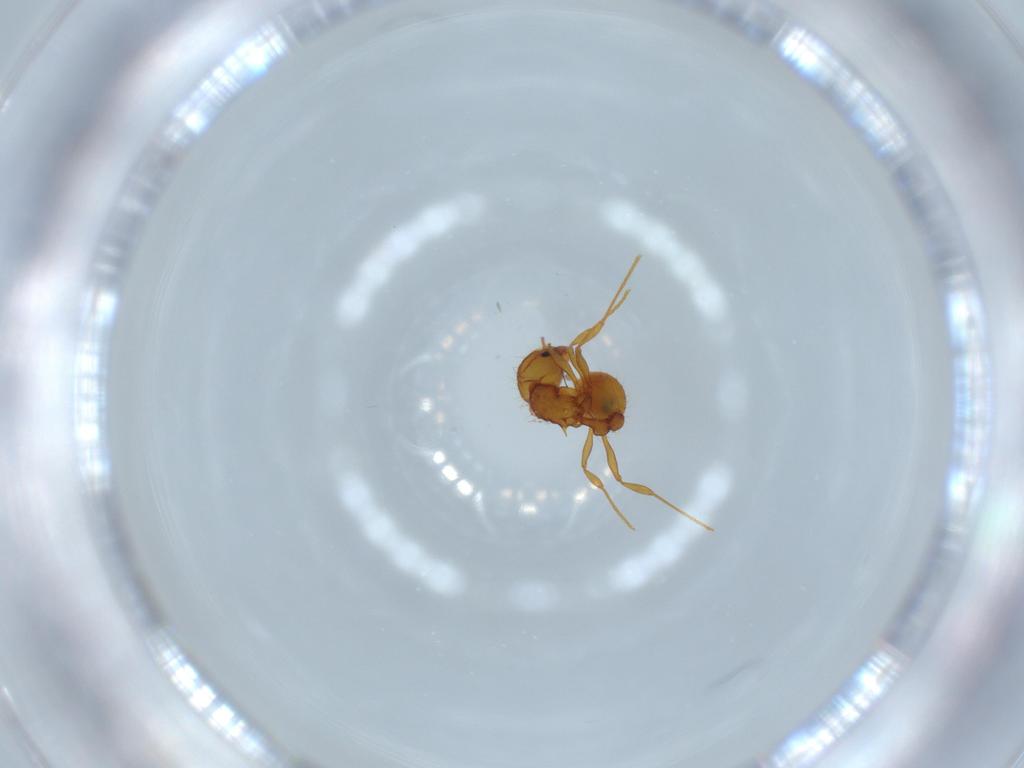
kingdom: Animalia
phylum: Arthropoda
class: Insecta
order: Hymenoptera
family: Formicidae
